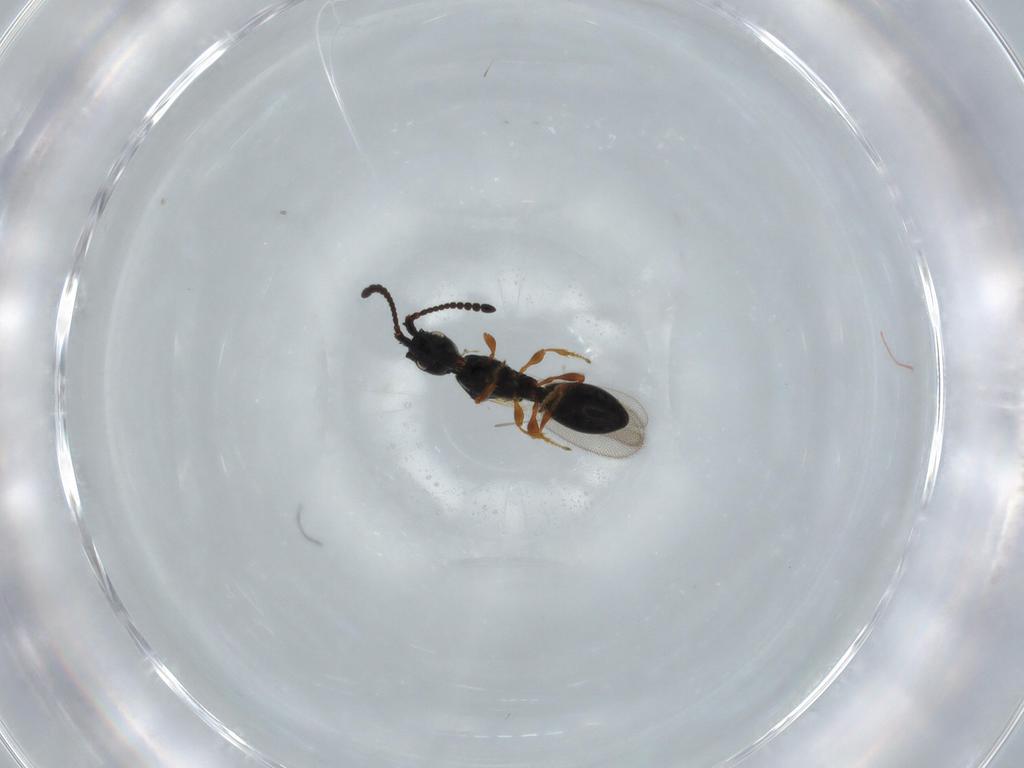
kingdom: Animalia
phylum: Arthropoda
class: Insecta
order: Hymenoptera
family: Diapriidae
